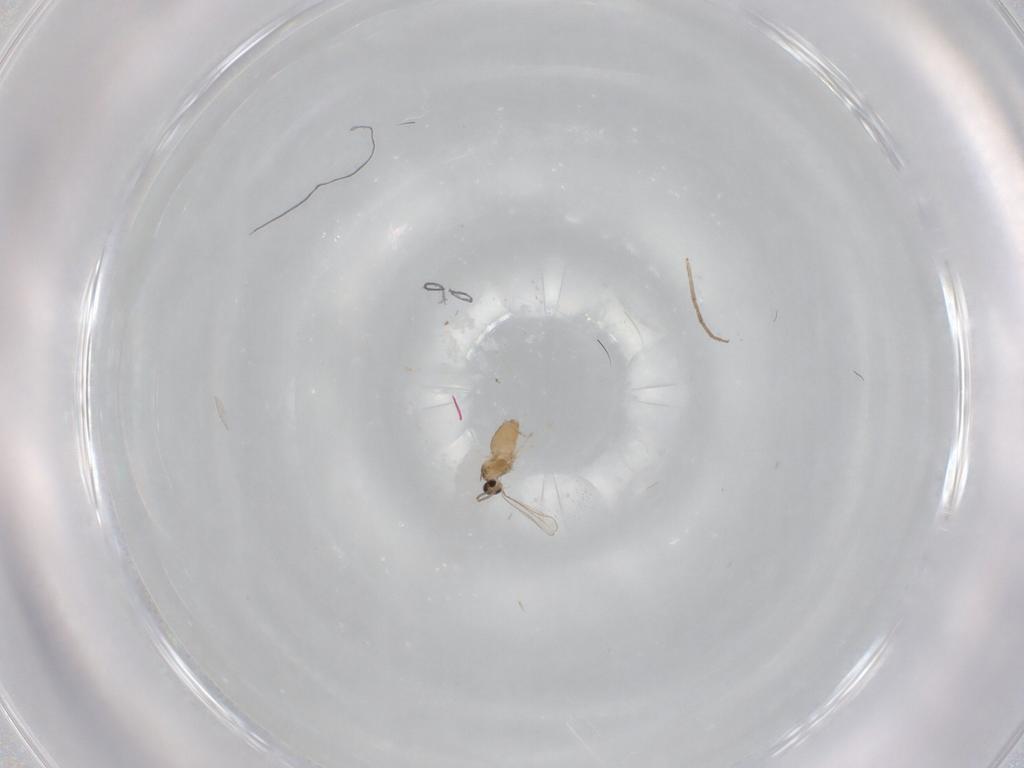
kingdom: Animalia
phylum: Arthropoda
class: Insecta
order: Diptera
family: Chironomidae
